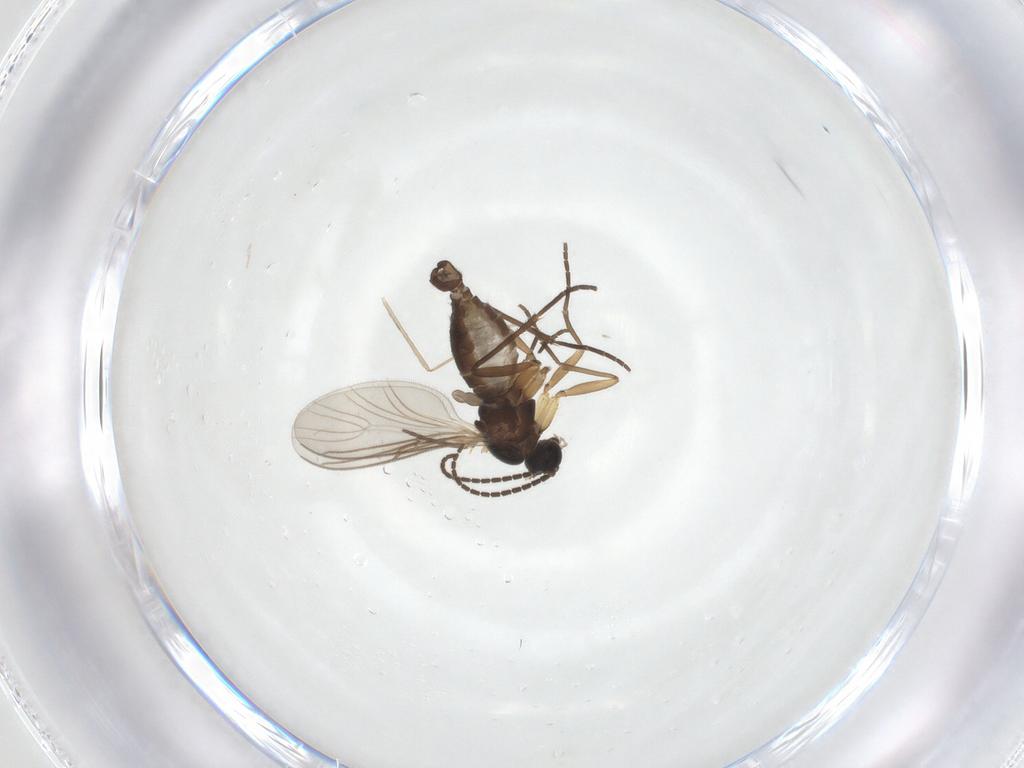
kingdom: Animalia
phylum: Arthropoda
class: Insecta
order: Diptera
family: Sciaridae
